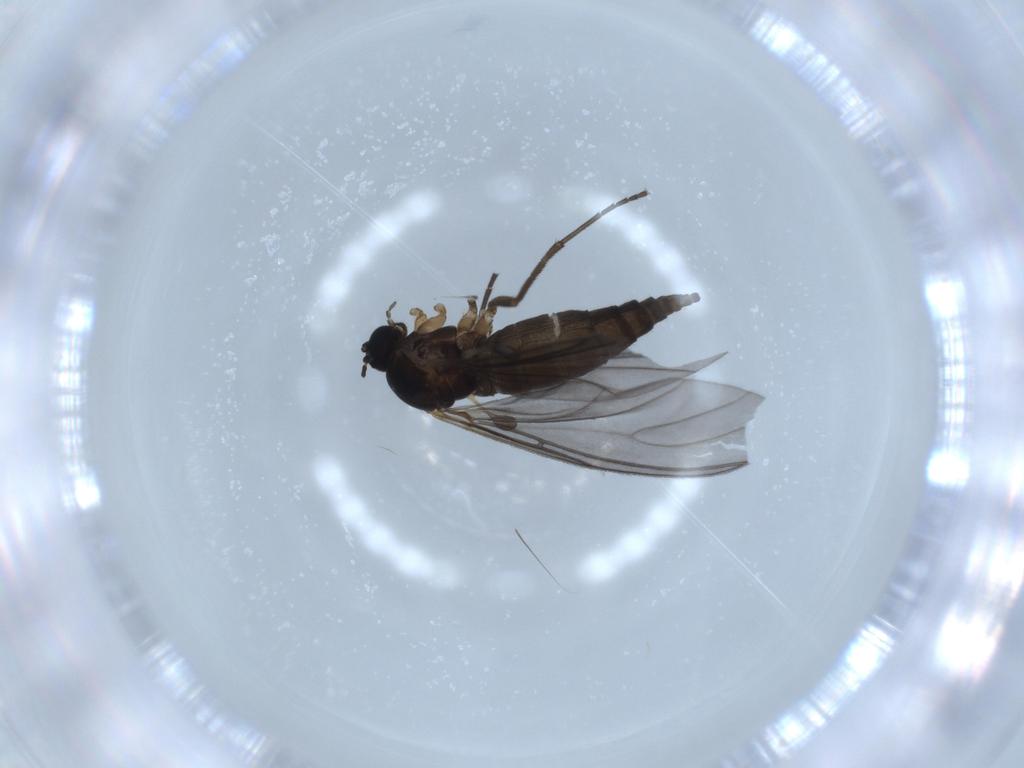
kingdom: Animalia
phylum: Arthropoda
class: Insecta
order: Diptera
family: Sciaridae
